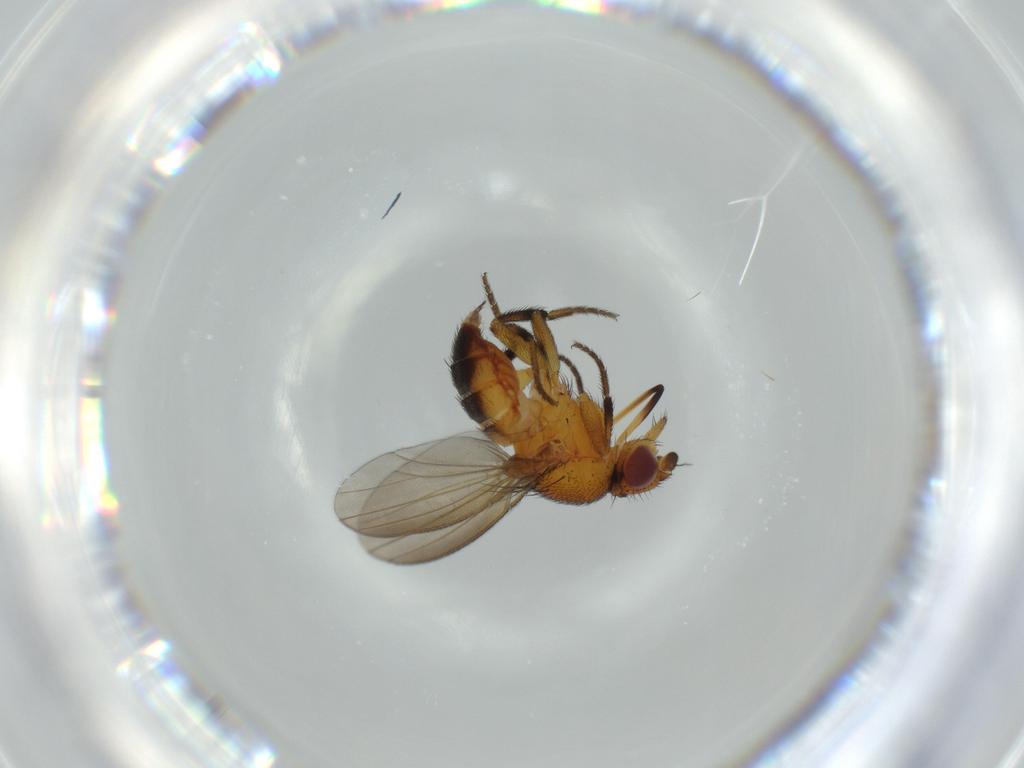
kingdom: Animalia
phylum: Arthropoda
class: Insecta
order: Diptera
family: Milichiidae
